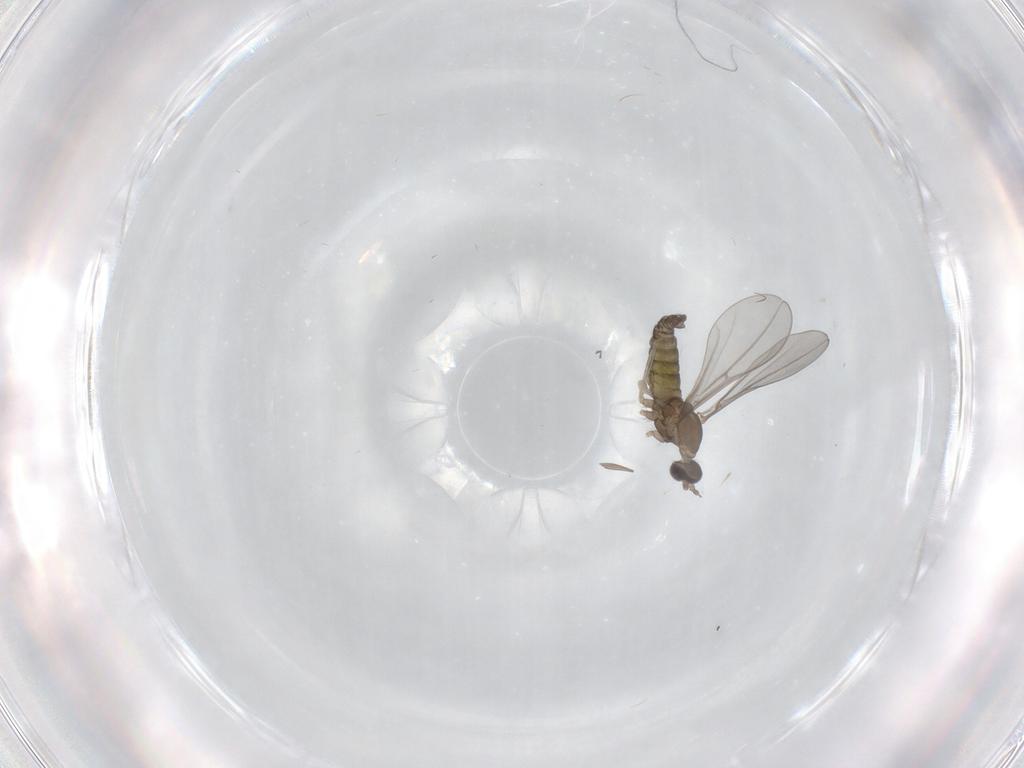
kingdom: Animalia
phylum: Arthropoda
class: Insecta
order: Diptera
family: Cecidomyiidae
